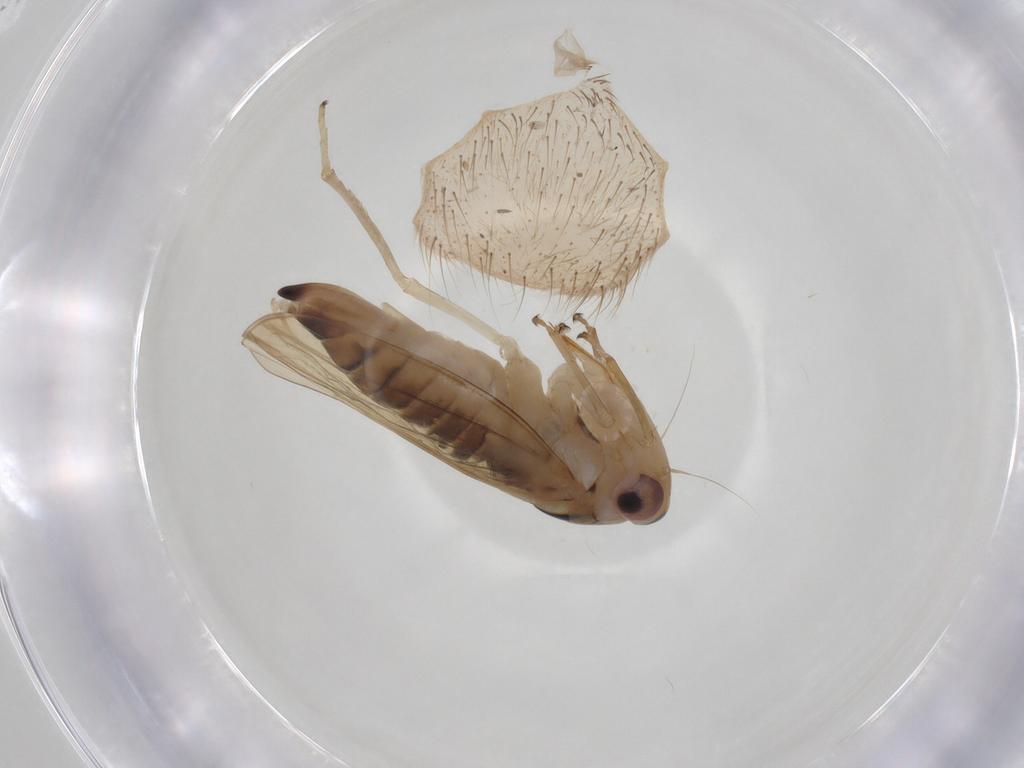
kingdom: Animalia
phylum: Arthropoda
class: Insecta
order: Hemiptera
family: Cicadellidae
